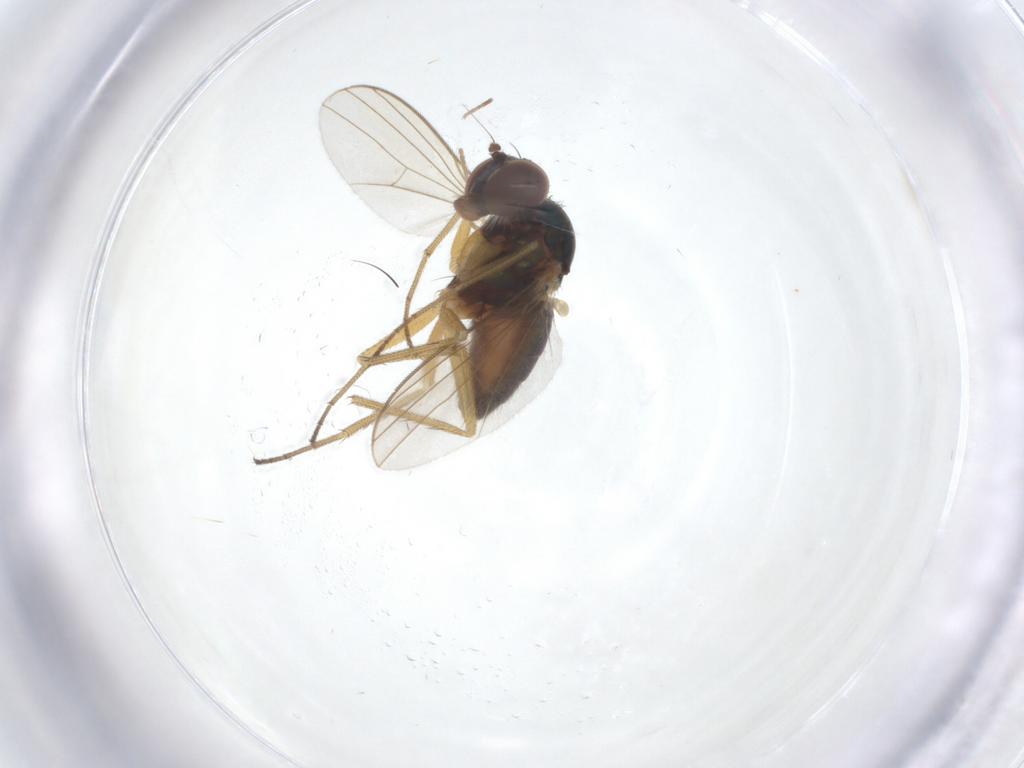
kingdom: Animalia
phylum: Arthropoda
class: Insecta
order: Diptera
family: Dolichopodidae
